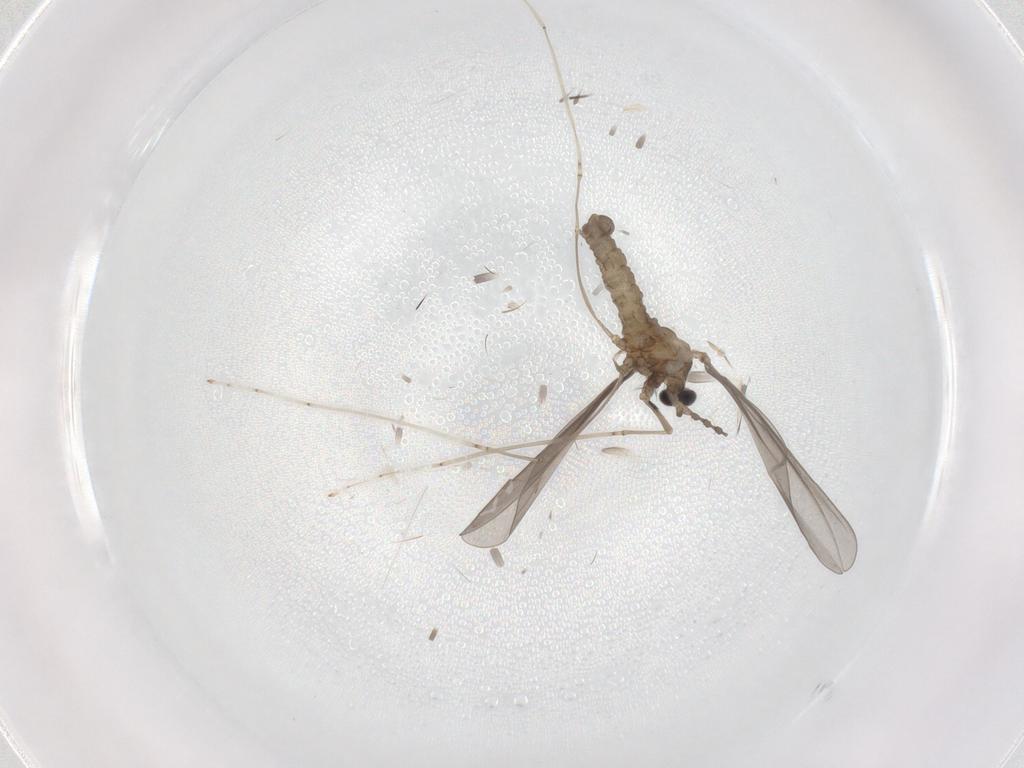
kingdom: Animalia
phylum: Arthropoda
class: Insecta
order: Diptera
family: Cecidomyiidae
